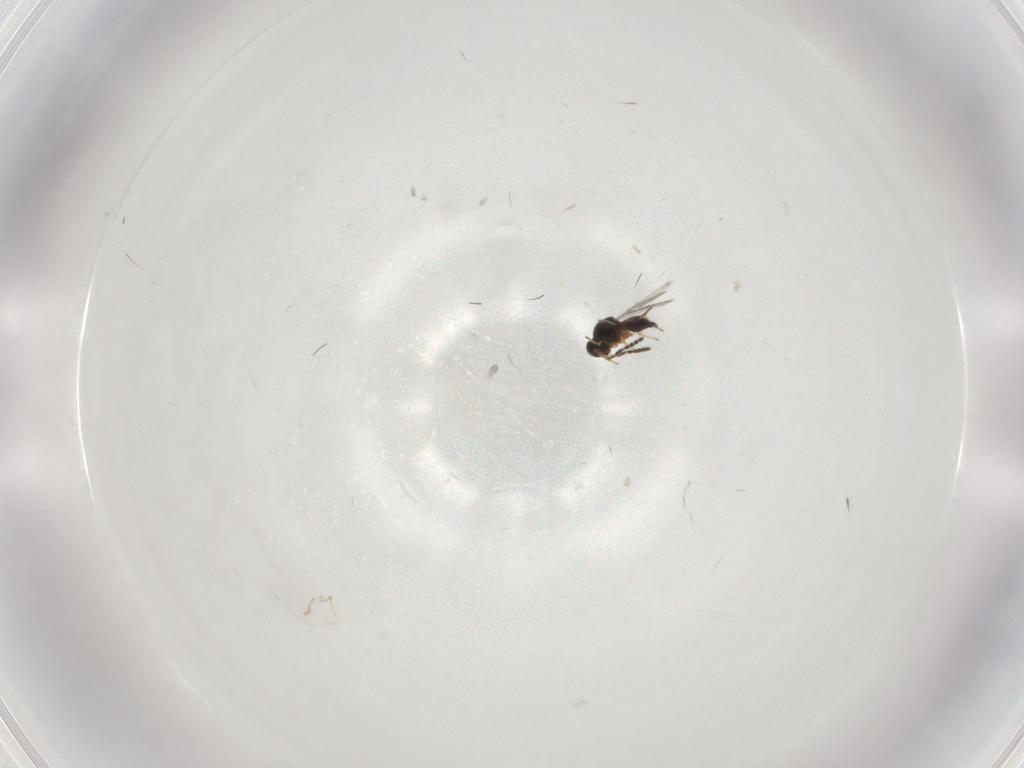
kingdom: Animalia
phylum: Arthropoda
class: Insecta
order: Hymenoptera
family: Platygastridae
